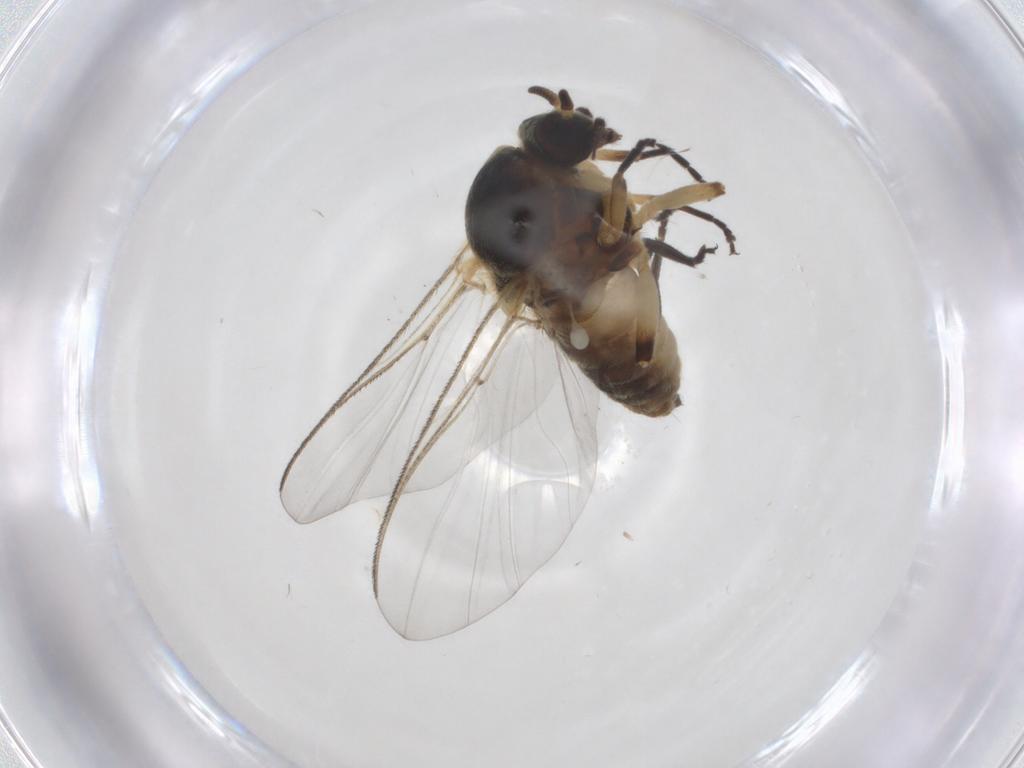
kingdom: Animalia
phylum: Arthropoda
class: Insecta
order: Diptera
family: Simuliidae
